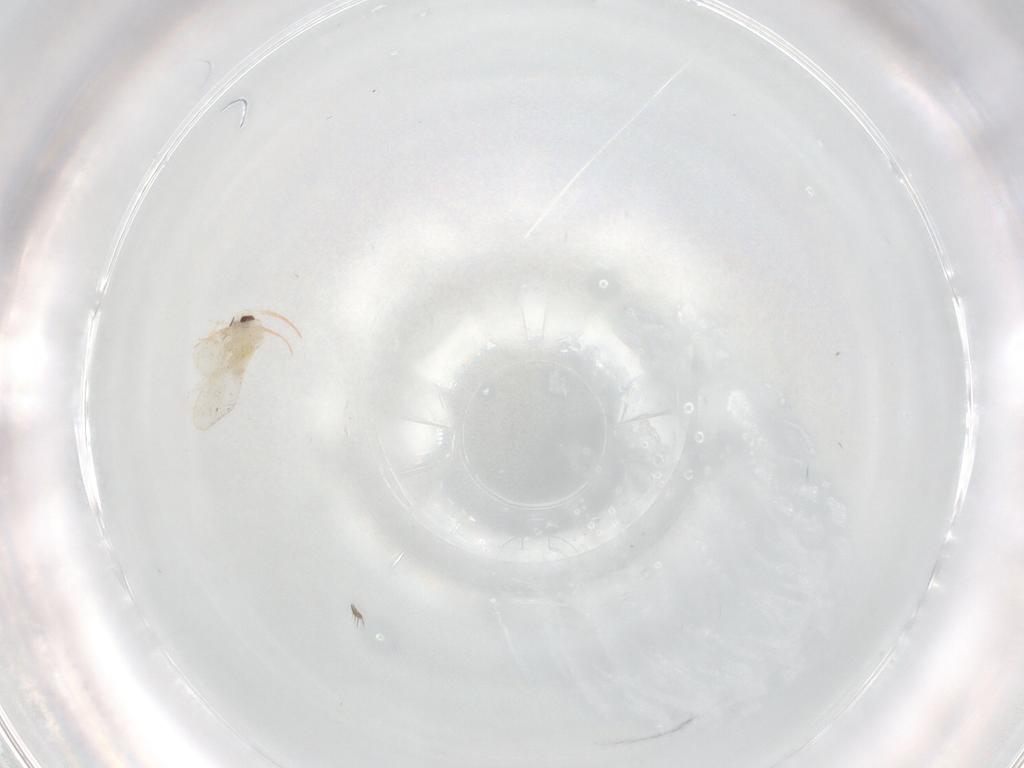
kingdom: Animalia
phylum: Arthropoda
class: Insecta
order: Hemiptera
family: Aleyrodidae
